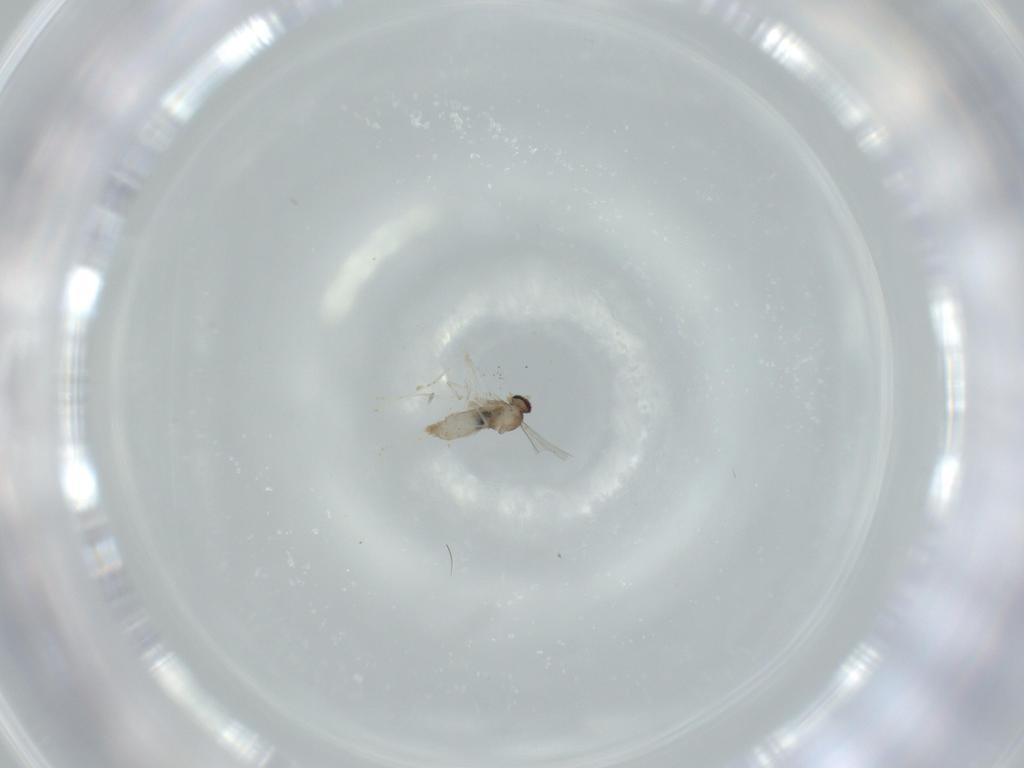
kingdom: Animalia
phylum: Arthropoda
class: Insecta
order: Diptera
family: Cecidomyiidae
